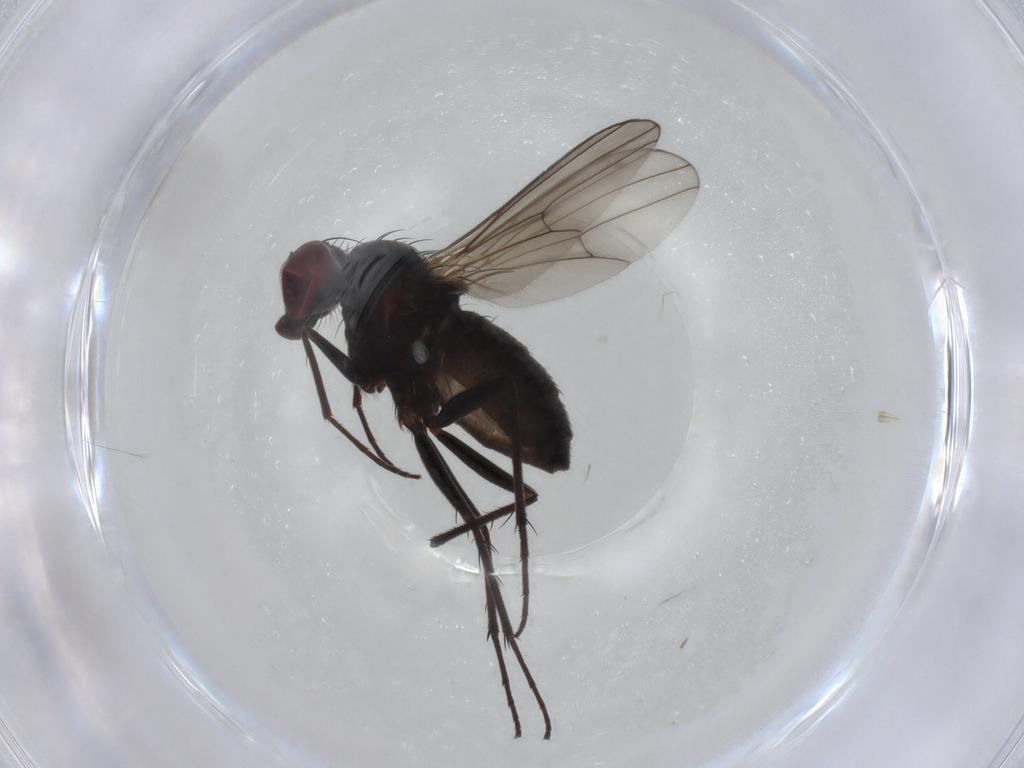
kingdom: Animalia
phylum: Arthropoda
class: Insecta
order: Diptera
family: Dolichopodidae
